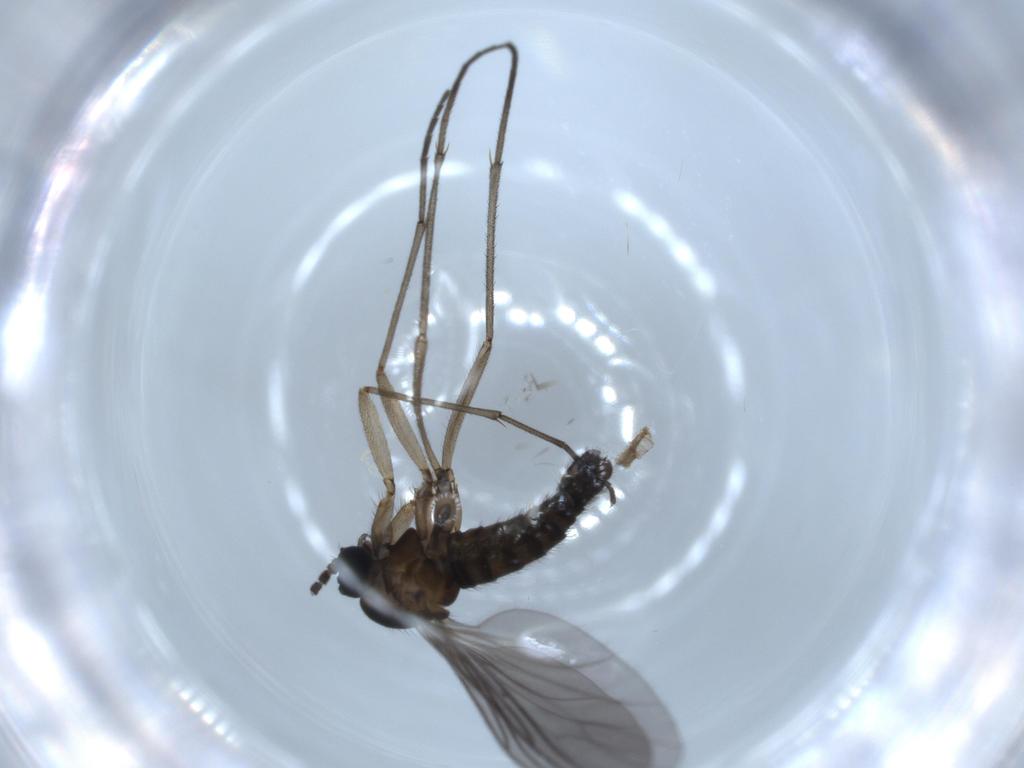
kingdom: Animalia
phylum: Arthropoda
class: Insecta
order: Diptera
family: Sciaridae
